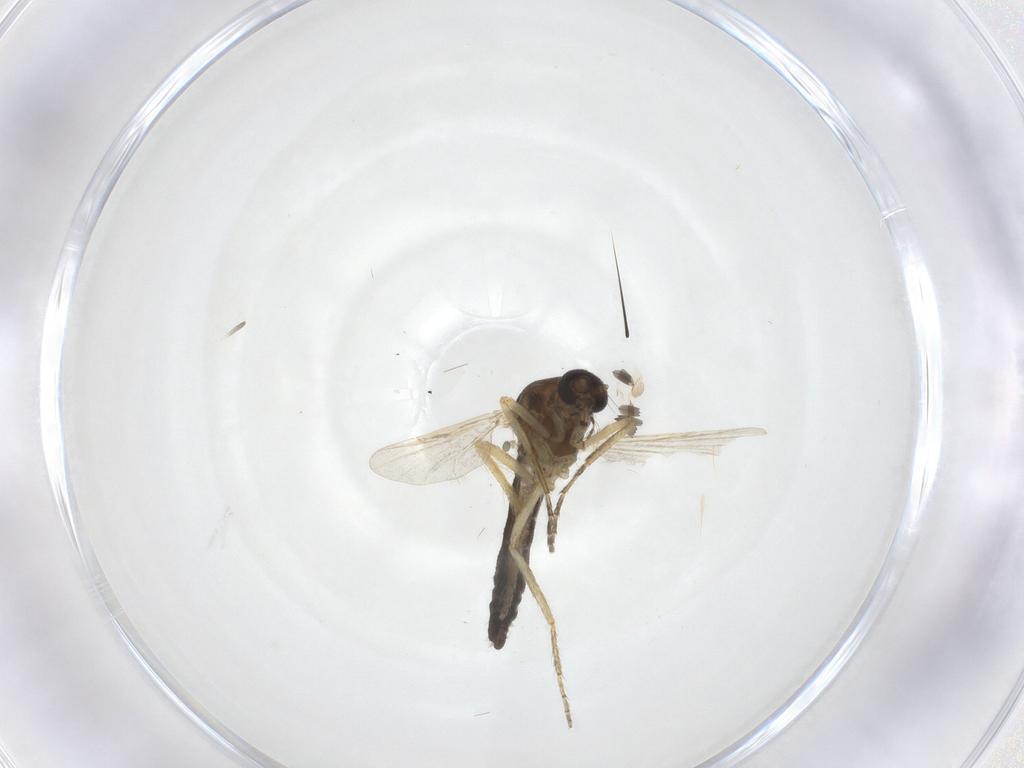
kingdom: Animalia
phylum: Arthropoda
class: Insecta
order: Diptera
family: Ceratopogonidae
